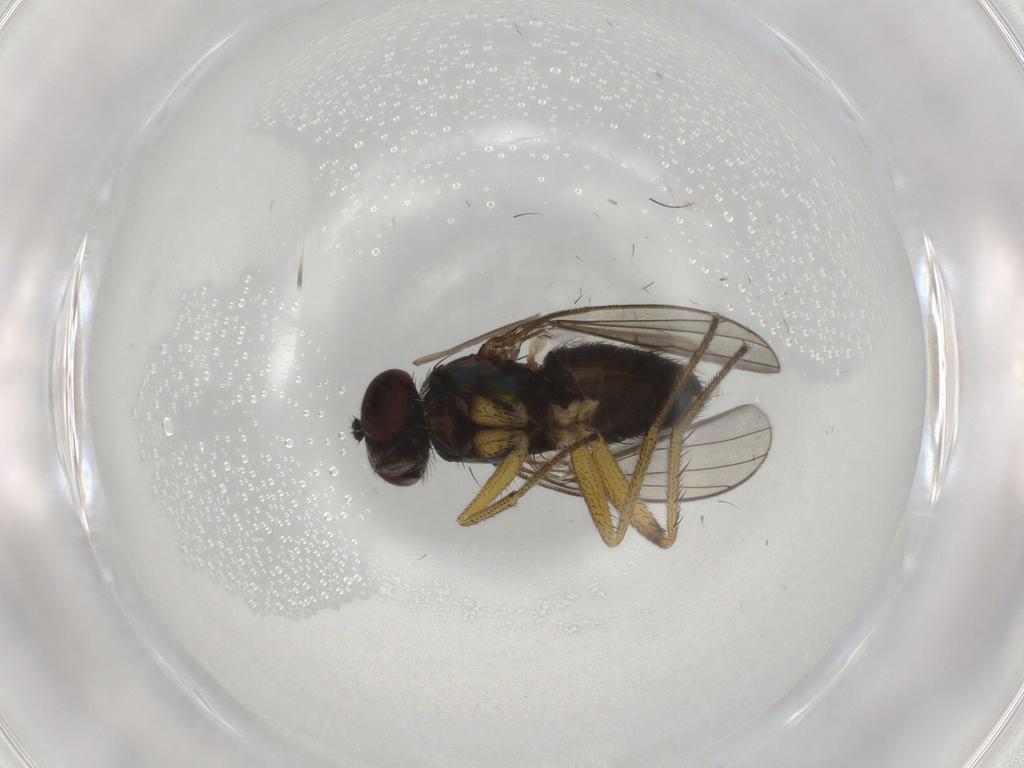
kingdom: Animalia
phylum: Arthropoda
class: Insecta
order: Diptera
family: Dolichopodidae
